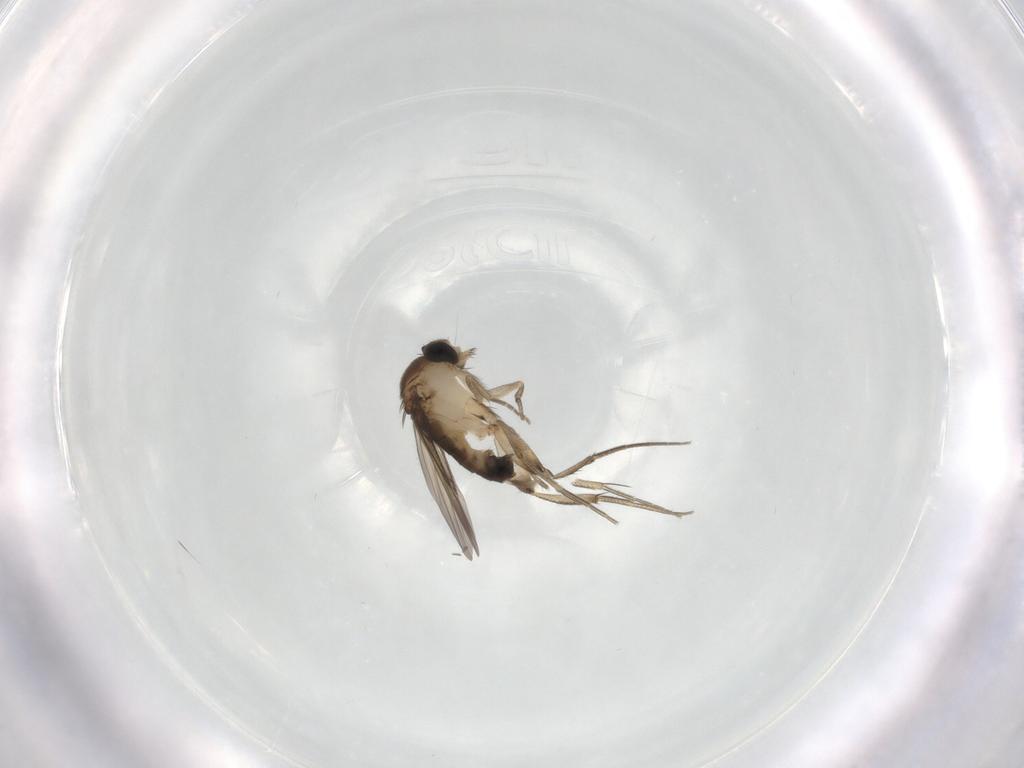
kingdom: Animalia
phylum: Arthropoda
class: Insecta
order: Diptera
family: Phoridae
